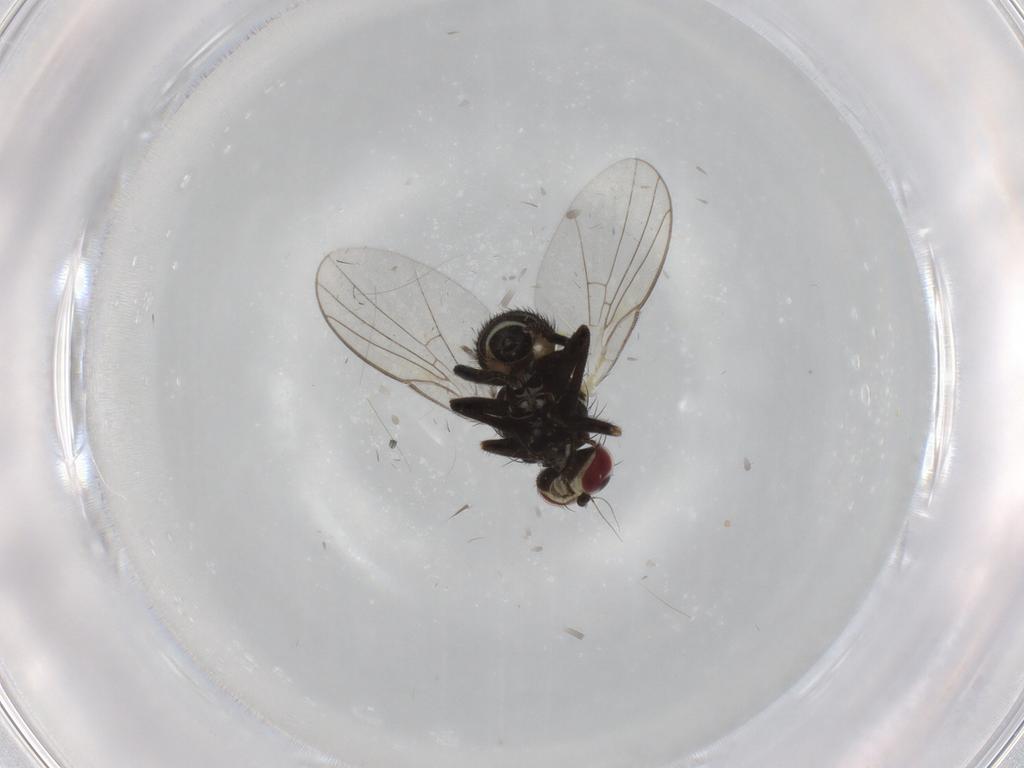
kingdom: Animalia
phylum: Arthropoda
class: Insecta
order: Diptera
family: Agromyzidae
